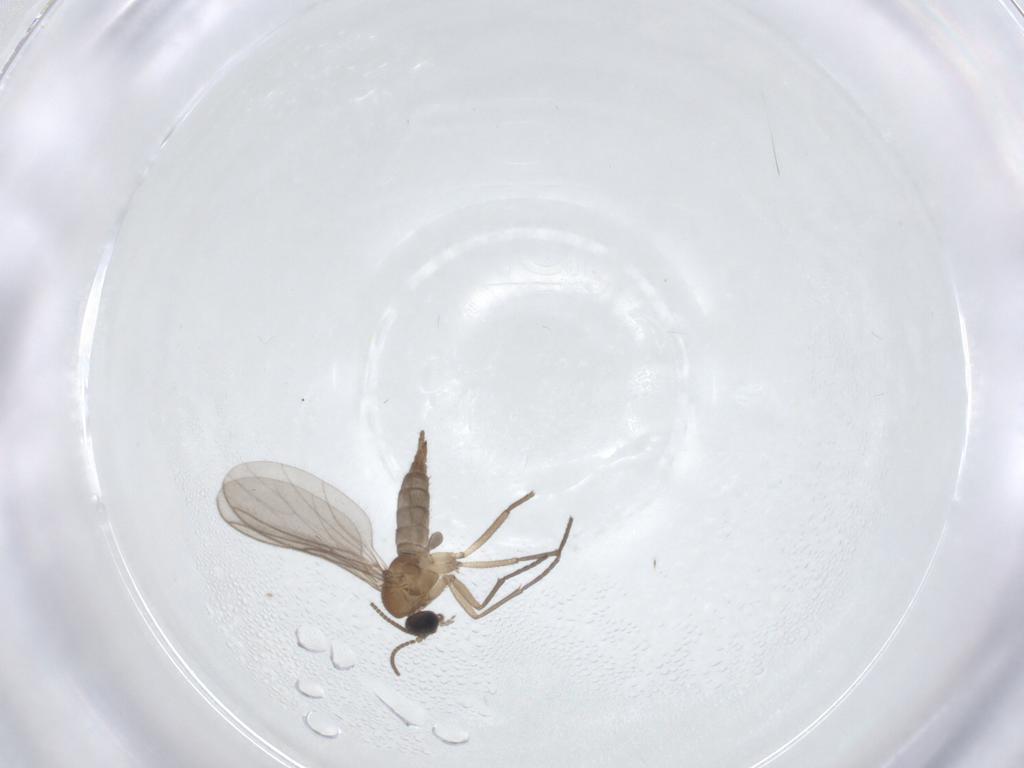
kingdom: Animalia
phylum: Arthropoda
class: Insecta
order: Diptera
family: Sciaridae
